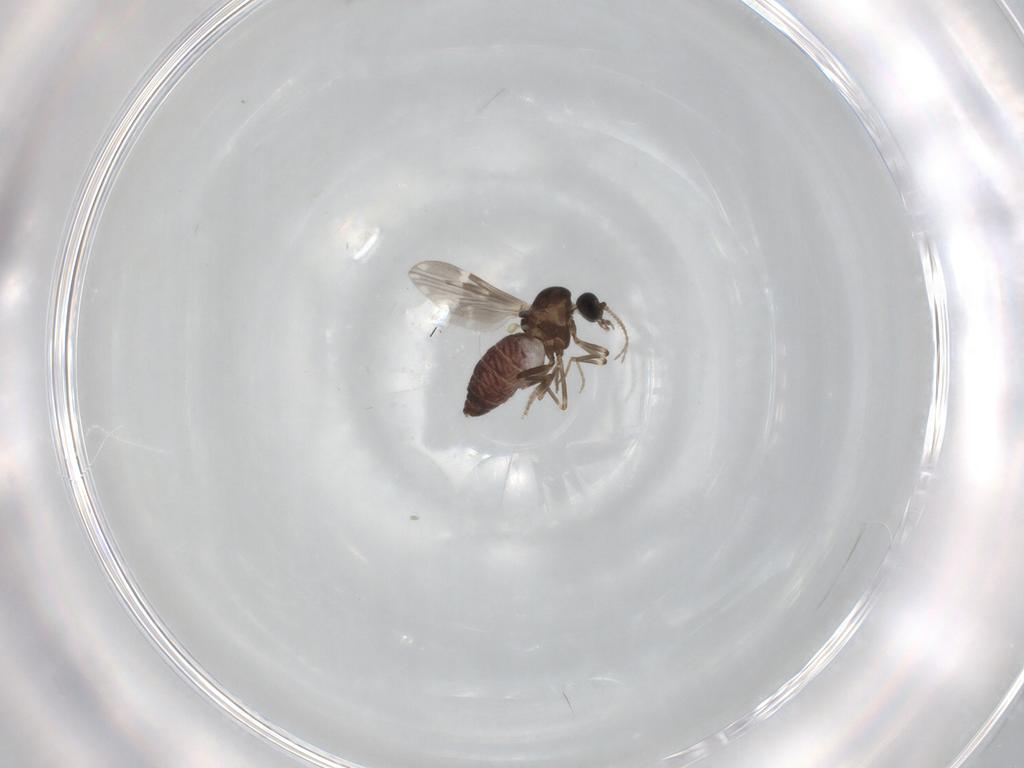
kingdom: Animalia
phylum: Arthropoda
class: Insecta
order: Diptera
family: Ceratopogonidae
